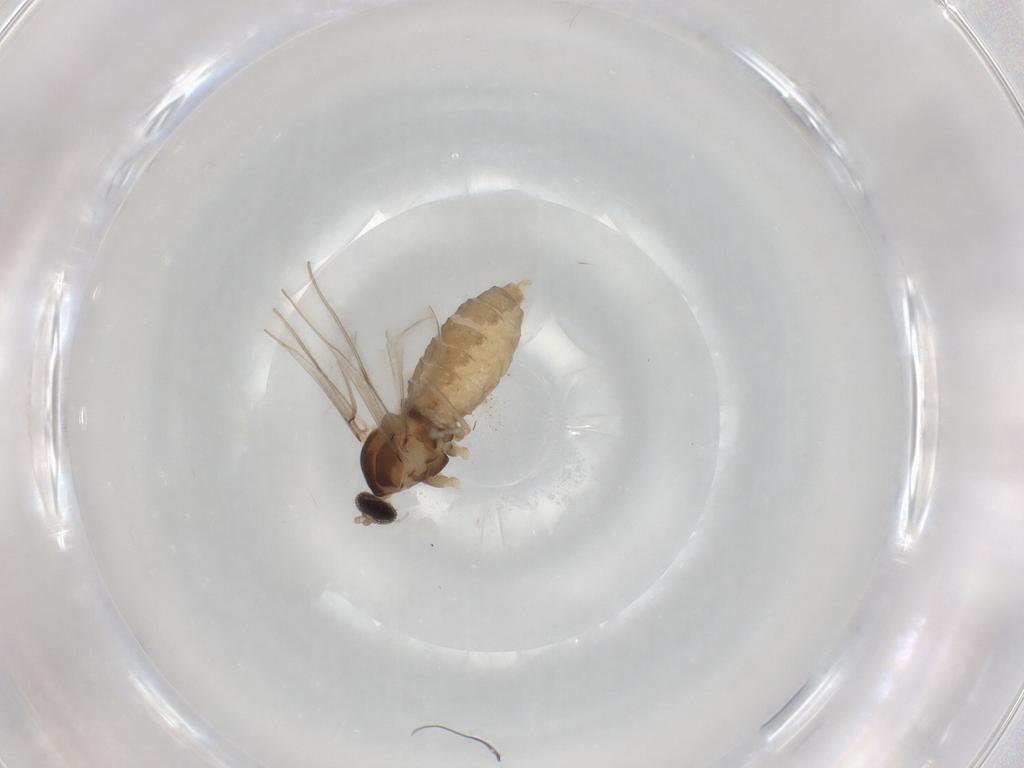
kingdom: Animalia
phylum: Arthropoda
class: Insecta
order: Diptera
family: Cecidomyiidae
